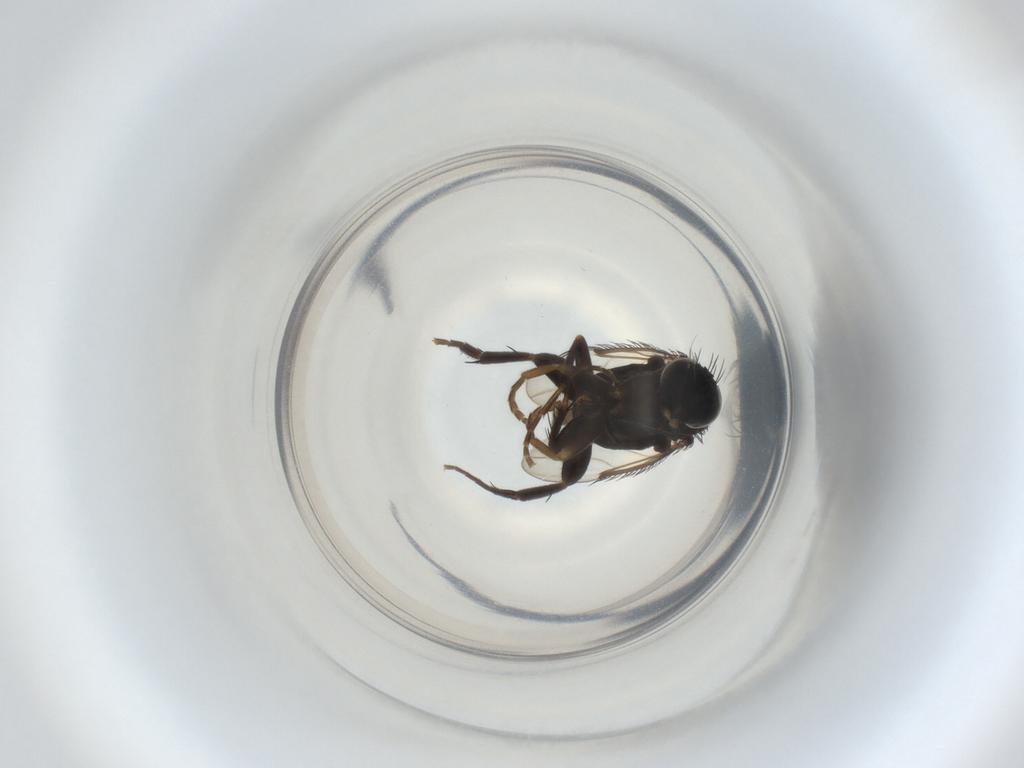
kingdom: Animalia
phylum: Arthropoda
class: Insecta
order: Diptera
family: Phoridae
